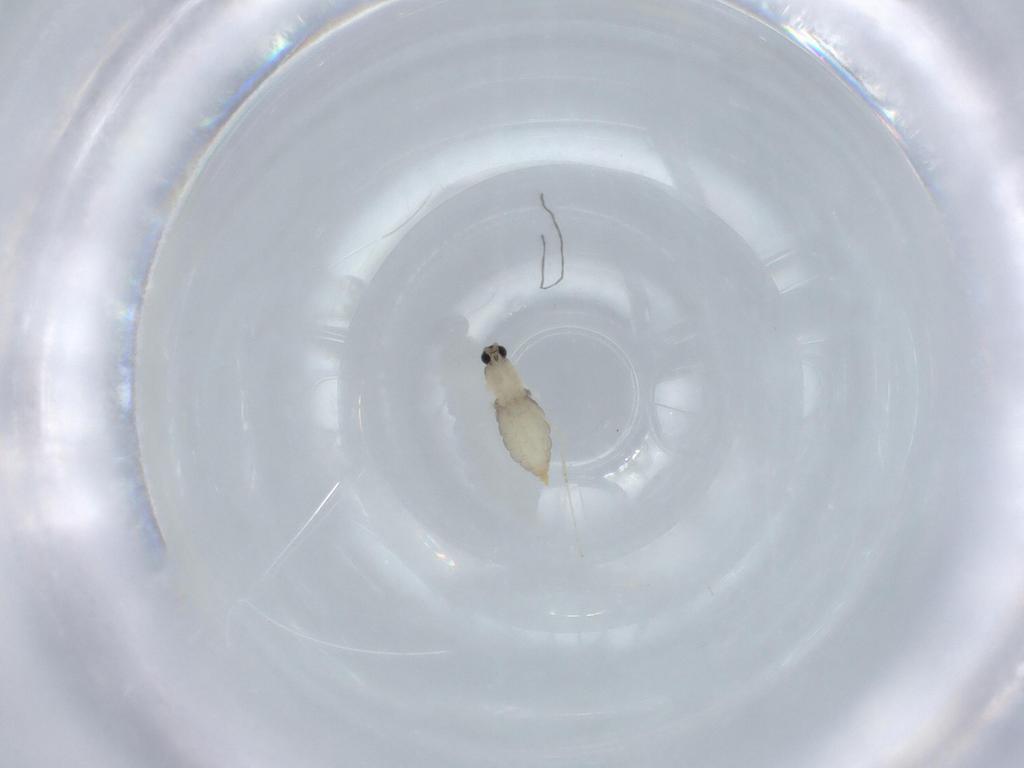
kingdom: Animalia
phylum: Arthropoda
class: Insecta
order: Diptera
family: Cecidomyiidae
